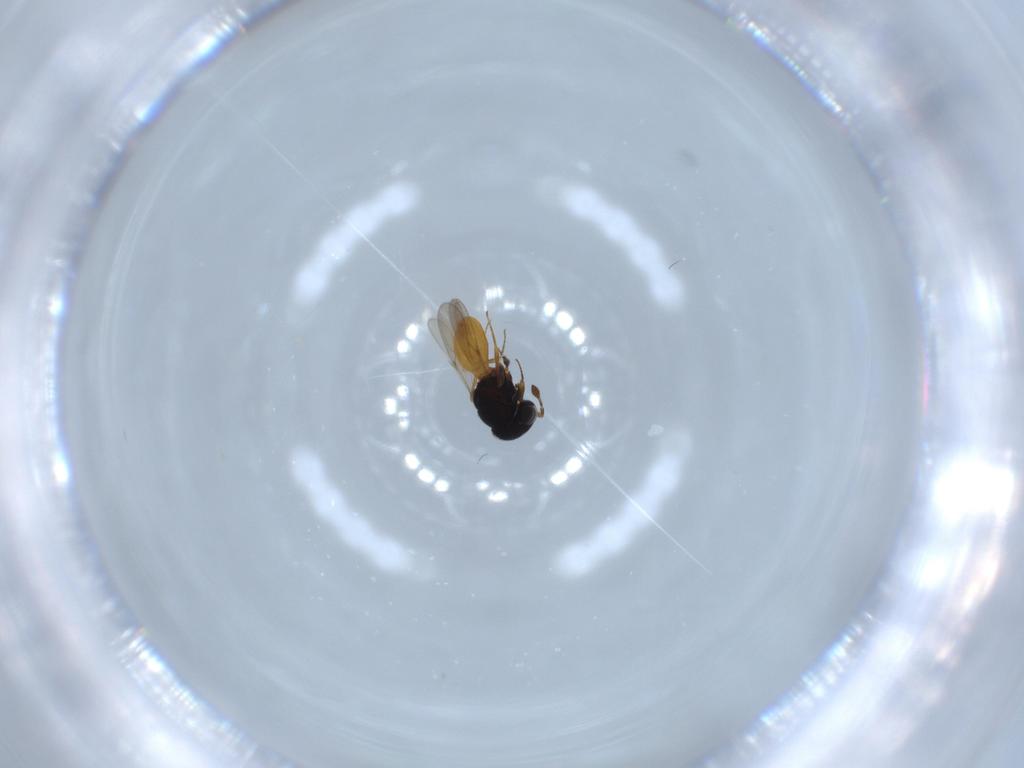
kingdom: Animalia
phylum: Arthropoda
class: Insecta
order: Hymenoptera
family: Scelionidae
